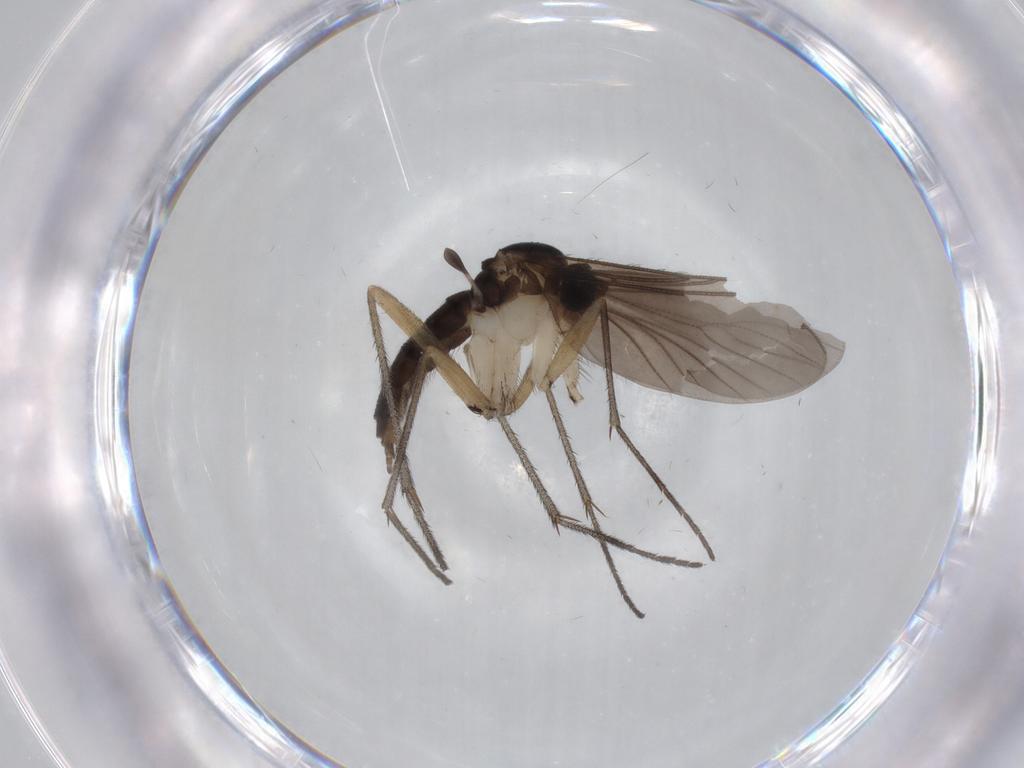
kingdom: Animalia
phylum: Arthropoda
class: Insecta
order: Diptera
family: Sciaridae
